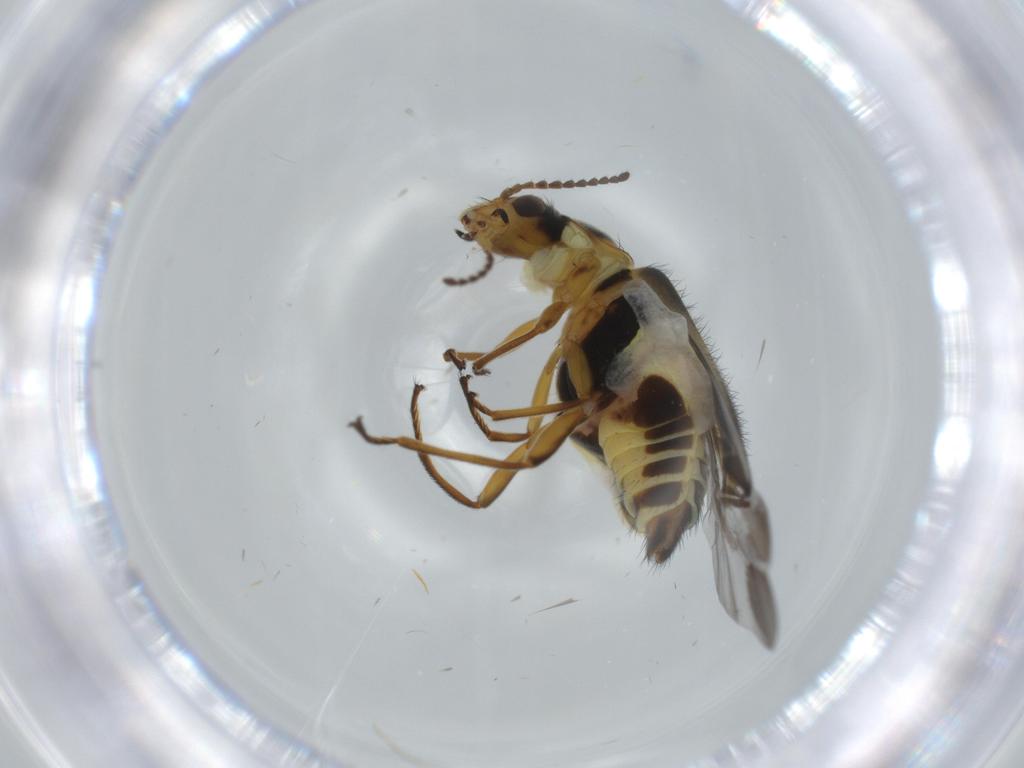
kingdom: Animalia
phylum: Arthropoda
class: Insecta
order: Coleoptera
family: Melyridae
